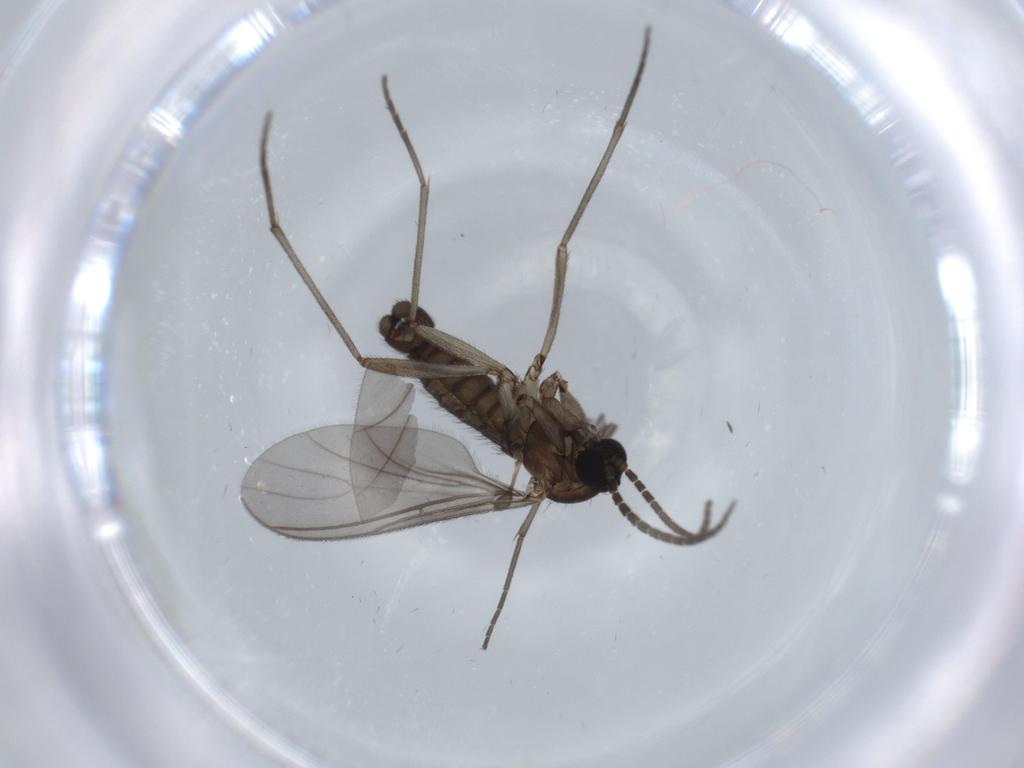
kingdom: Animalia
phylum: Arthropoda
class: Insecta
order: Diptera
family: Sciaridae
